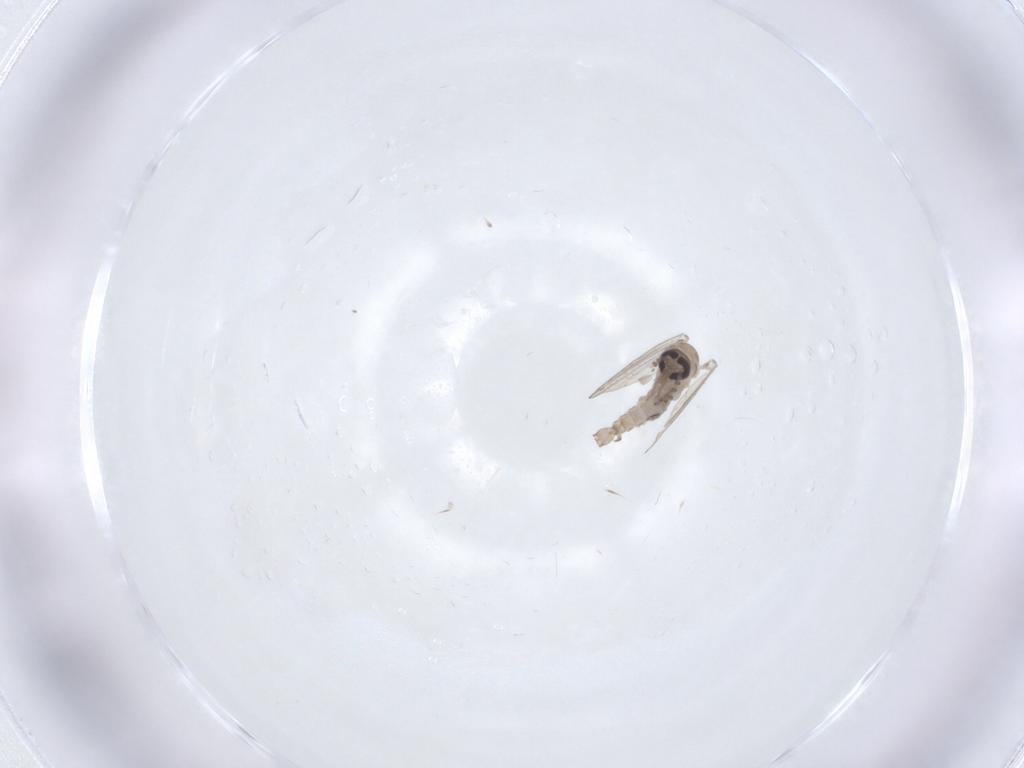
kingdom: Animalia
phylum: Arthropoda
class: Insecta
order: Diptera
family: Psychodidae
